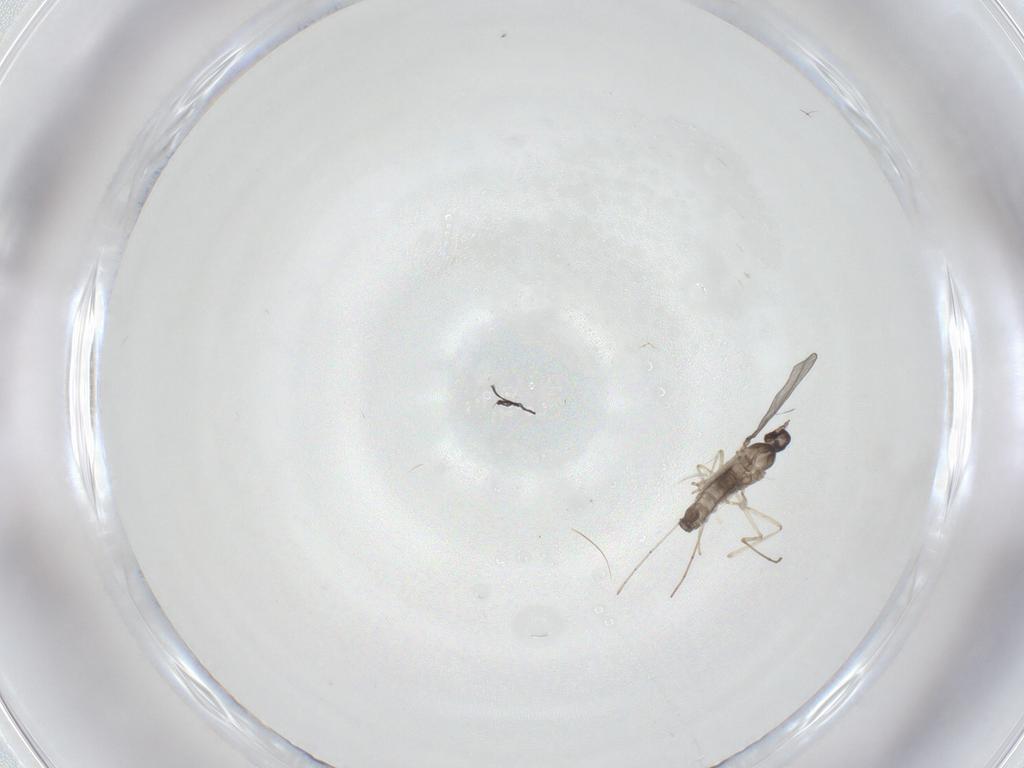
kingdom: Animalia
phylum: Arthropoda
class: Insecta
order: Diptera
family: Cecidomyiidae
